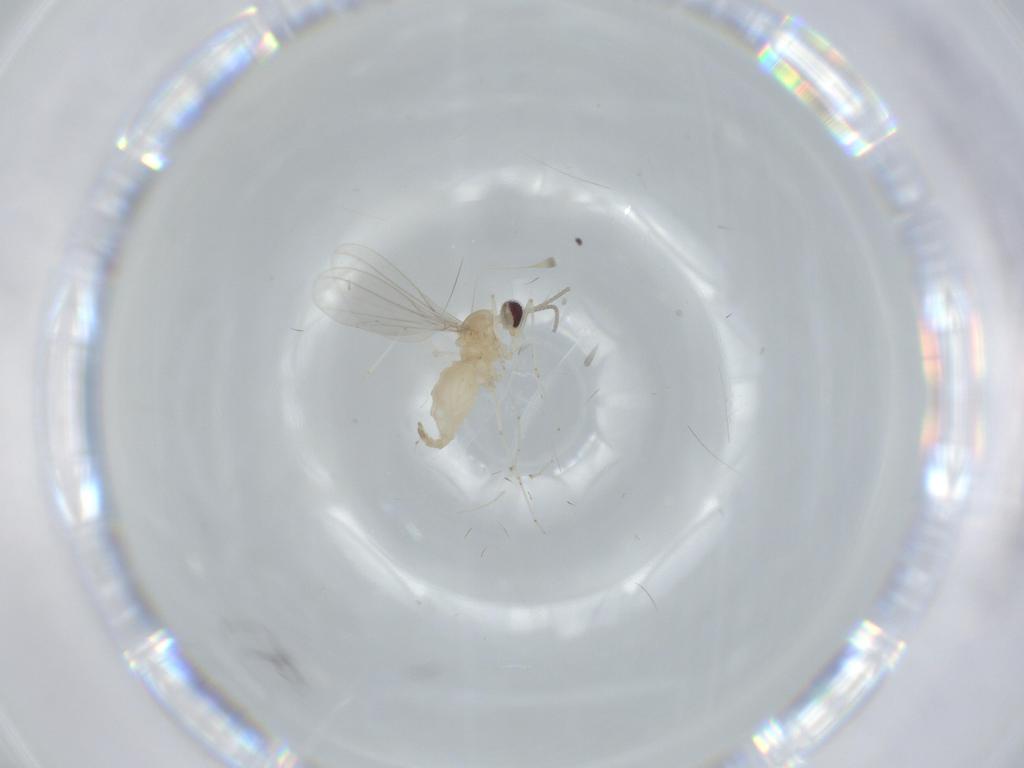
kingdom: Animalia
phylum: Arthropoda
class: Insecta
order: Diptera
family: Cecidomyiidae
